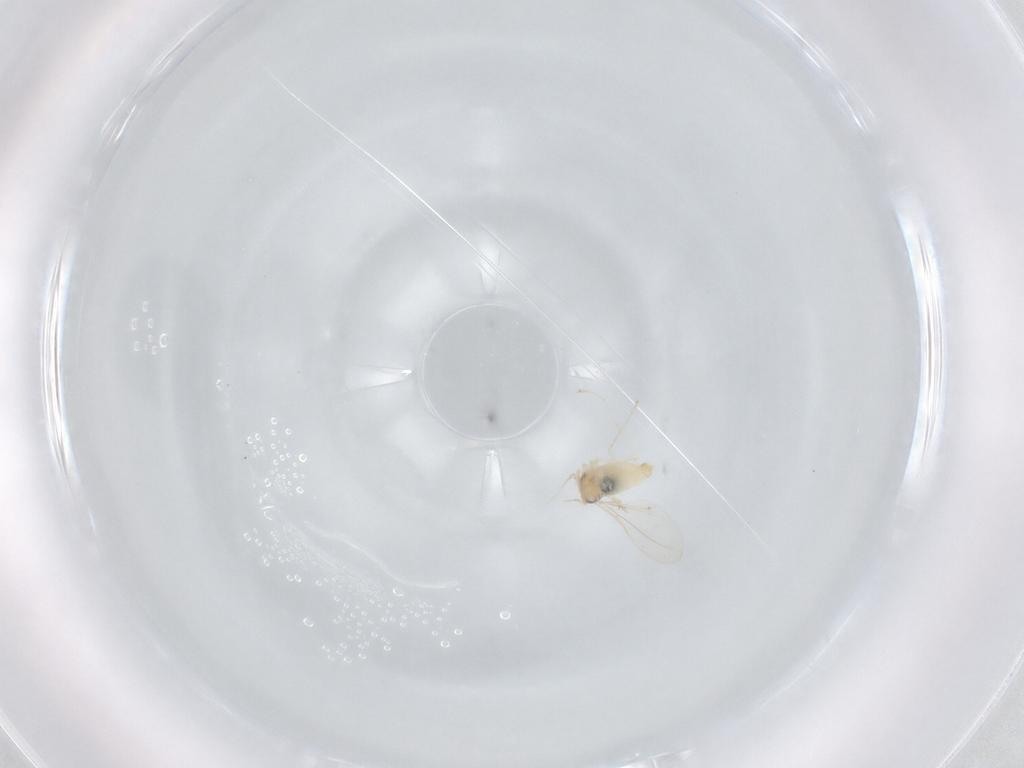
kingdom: Animalia
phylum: Arthropoda
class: Insecta
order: Diptera
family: Cecidomyiidae
